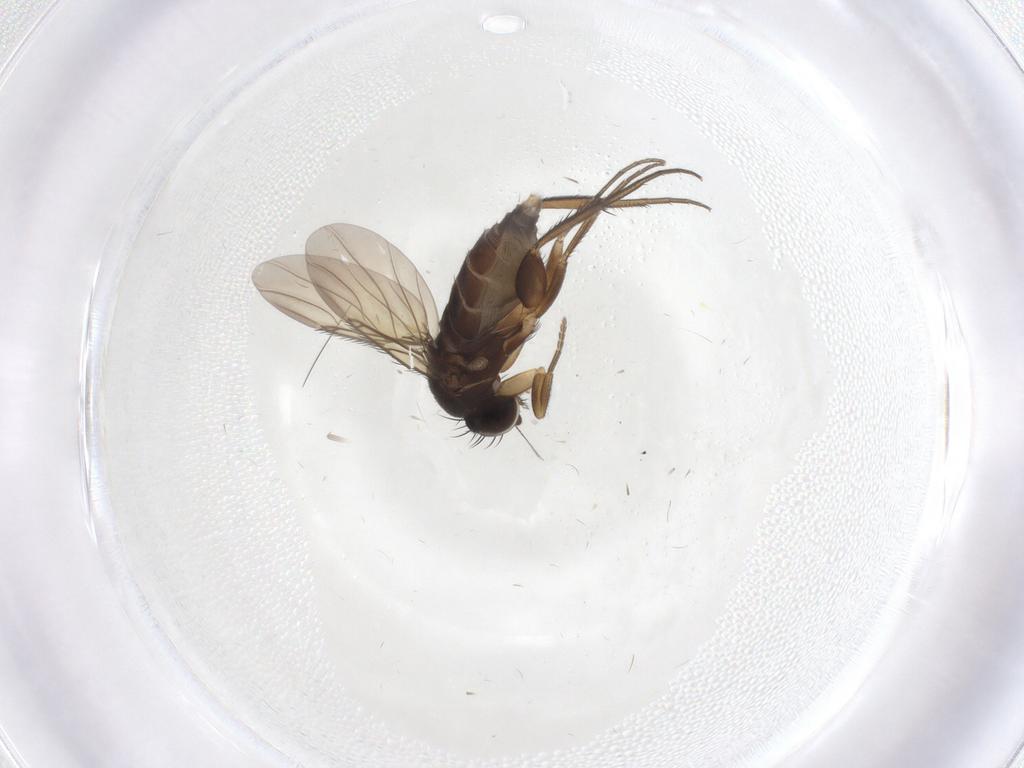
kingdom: Animalia
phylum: Arthropoda
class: Insecta
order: Diptera
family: Phoridae
